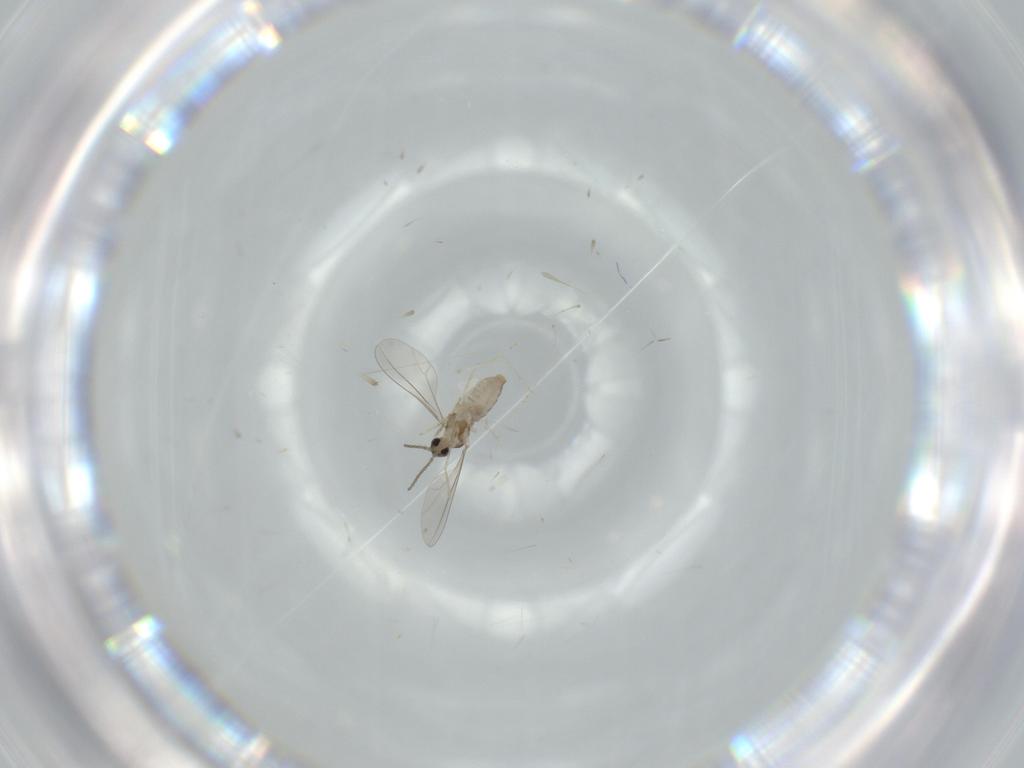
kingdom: Animalia
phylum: Arthropoda
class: Insecta
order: Diptera
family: Cecidomyiidae
